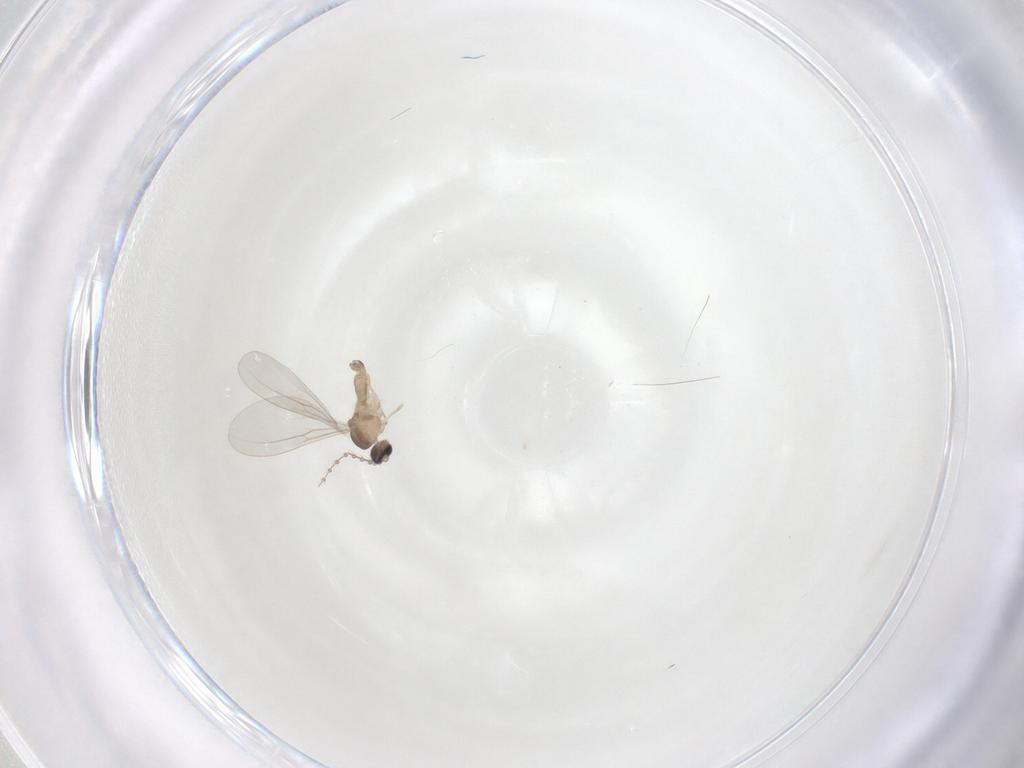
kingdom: Animalia
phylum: Arthropoda
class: Insecta
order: Diptera
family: Cecidomyiidae
